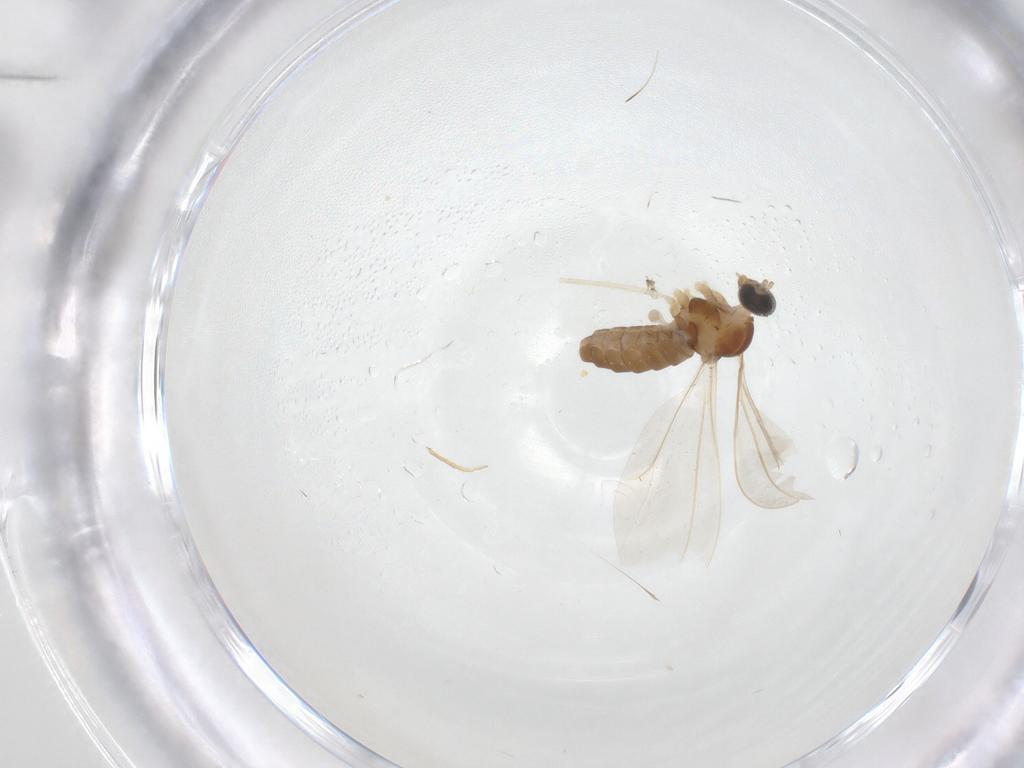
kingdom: Animalia
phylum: Arthropoda
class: Insecta
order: Diptera
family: Cecidomyiidae
